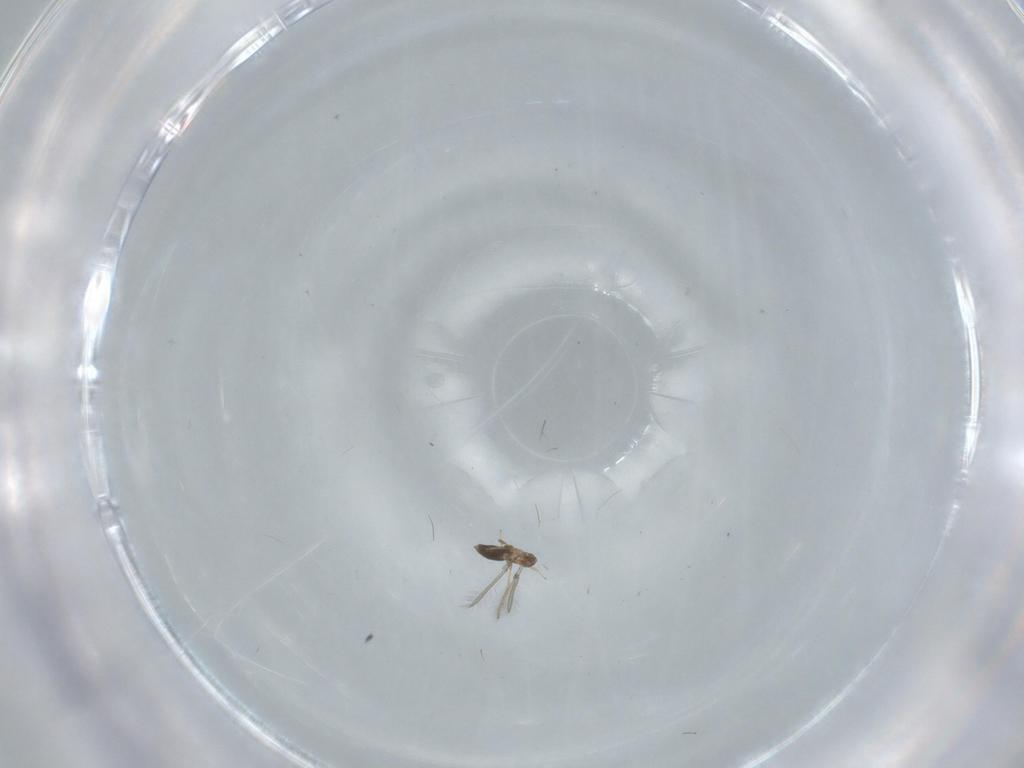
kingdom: Animalia
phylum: Arthropoda
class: Insecta
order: Hymenoptera
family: Mymaridae
